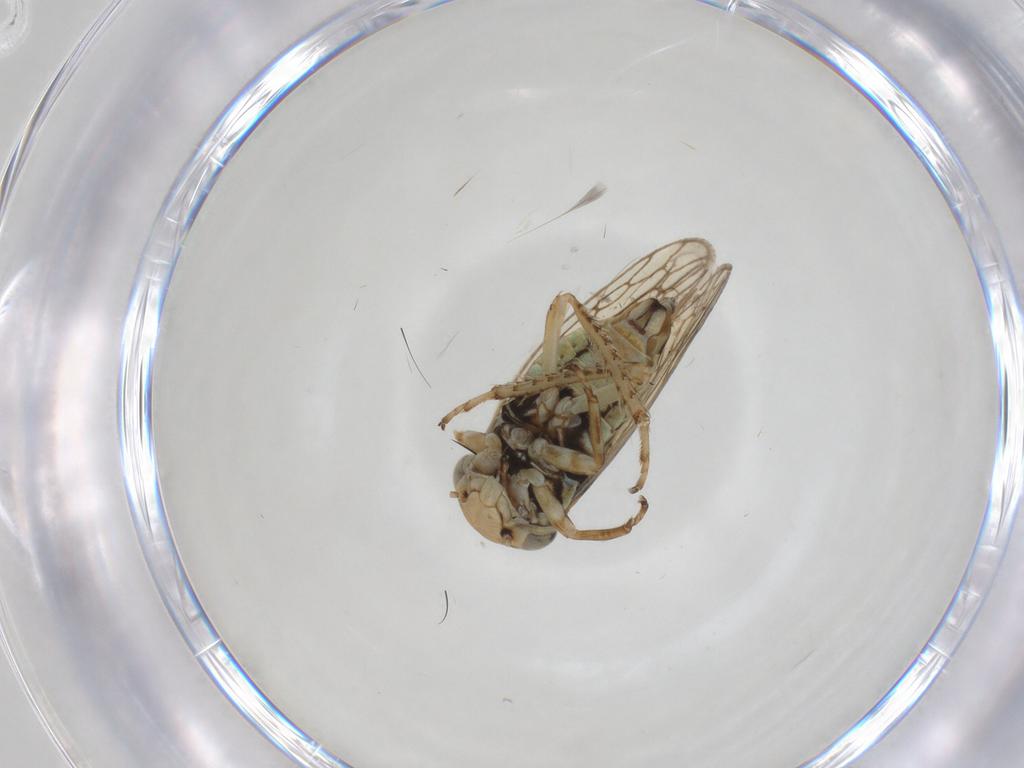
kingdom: Animalia
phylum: Arthropoda
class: Insecta
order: Hemiptera
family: Cicadellidae
